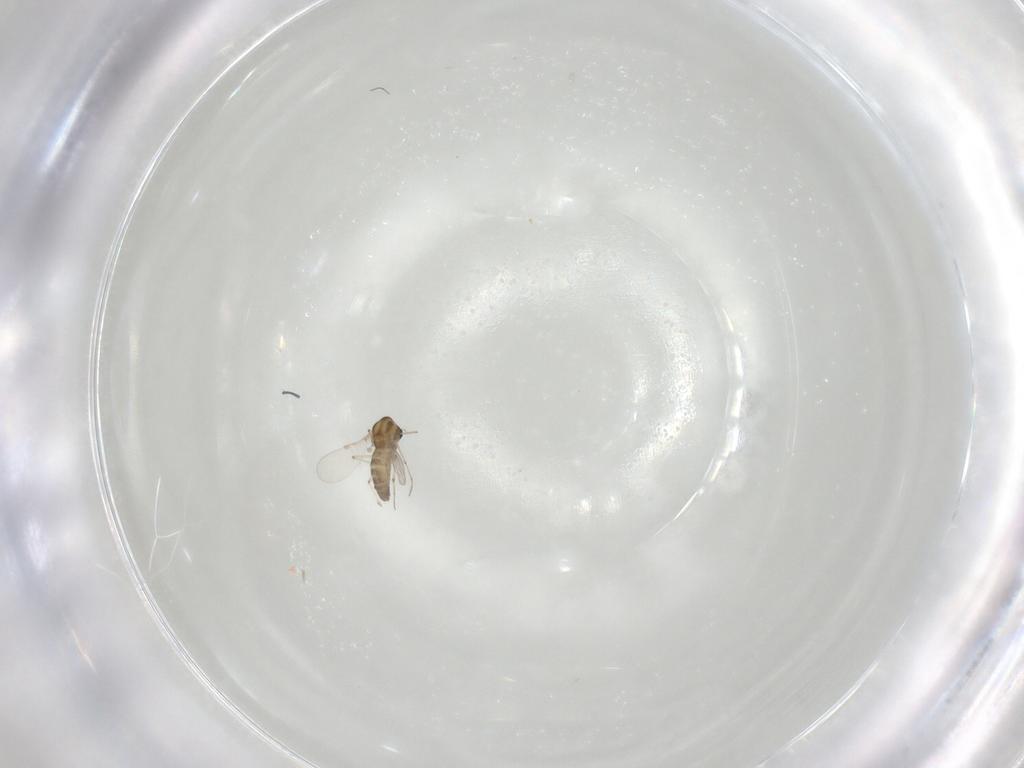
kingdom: Animalia
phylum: Arthropoda
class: Insecta
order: Diptera
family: Chironomidae
